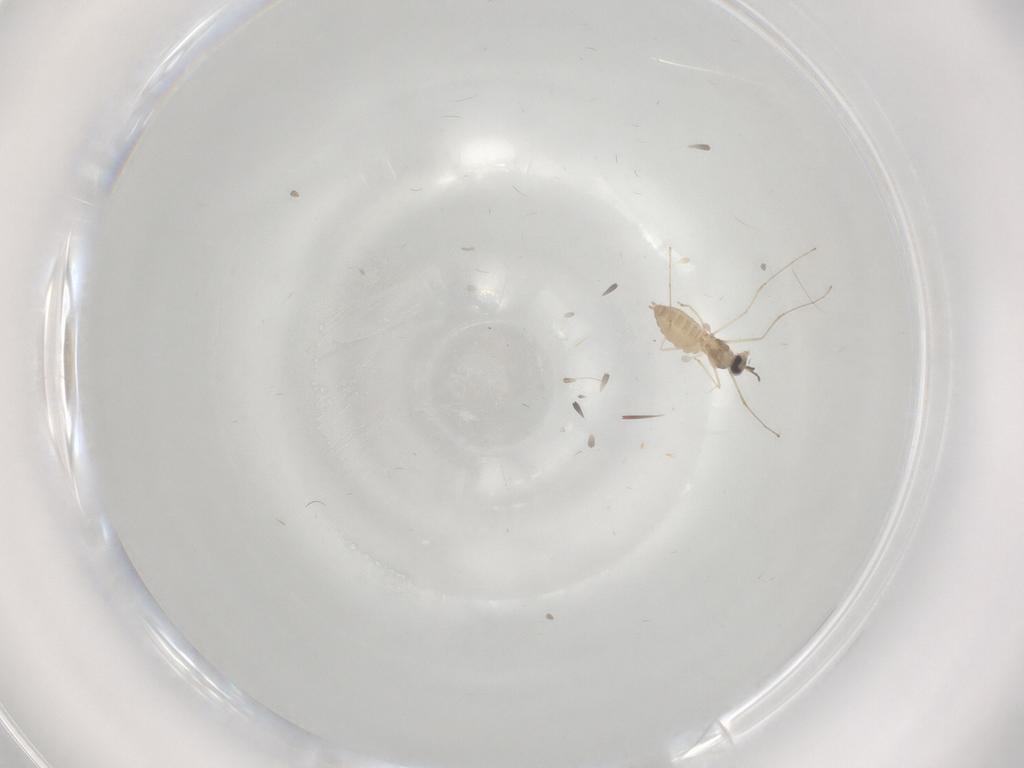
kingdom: Animalia
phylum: Arthropoda
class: Insecta
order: Diptera
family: Cecidomyiidae
